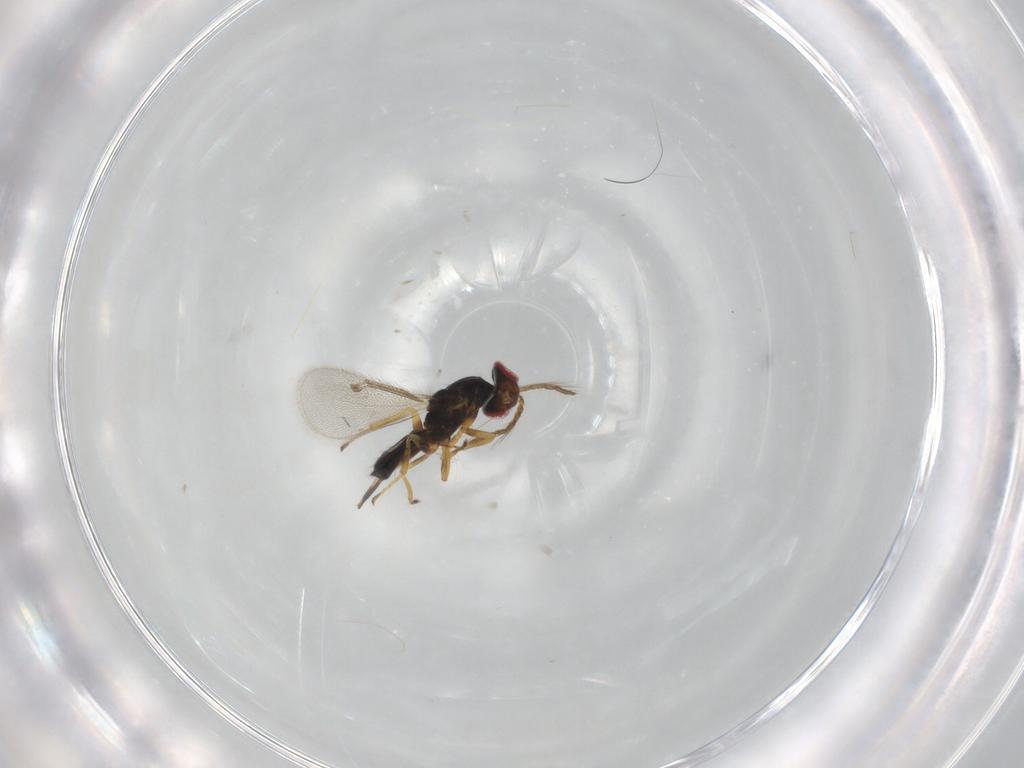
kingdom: Animalia
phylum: Arthropoda
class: Insecta
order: Hymenoptera
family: Eulophidae
